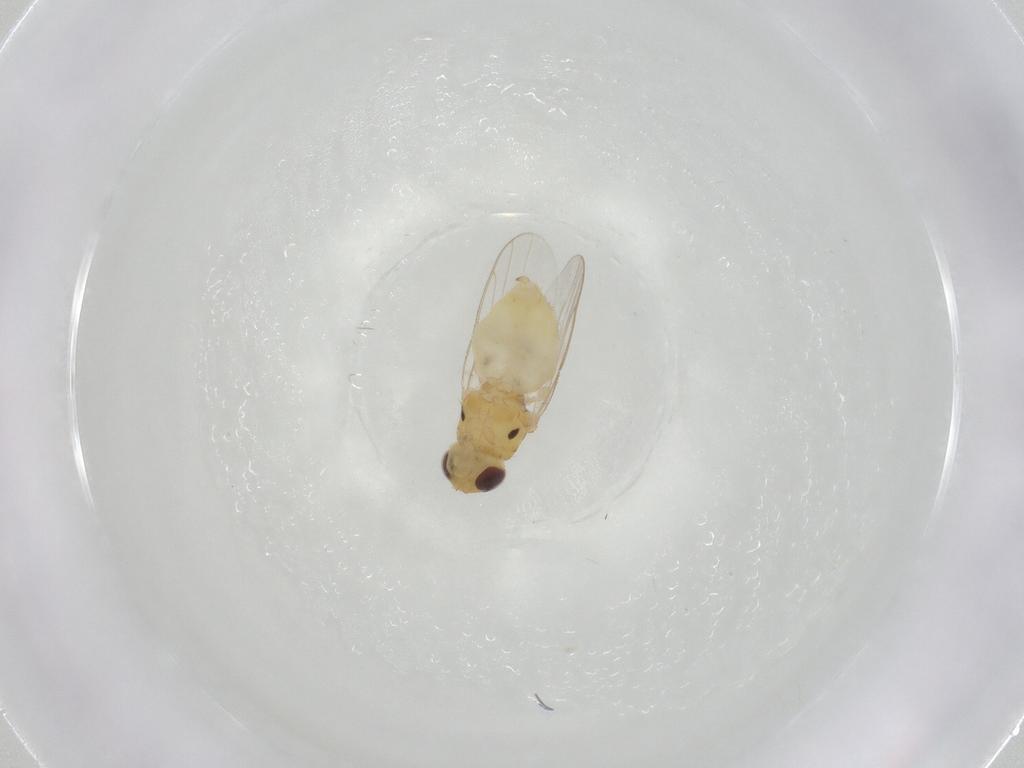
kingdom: Animalia
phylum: Arthropoda
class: Insecta
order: Diptera
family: Chloropidae
